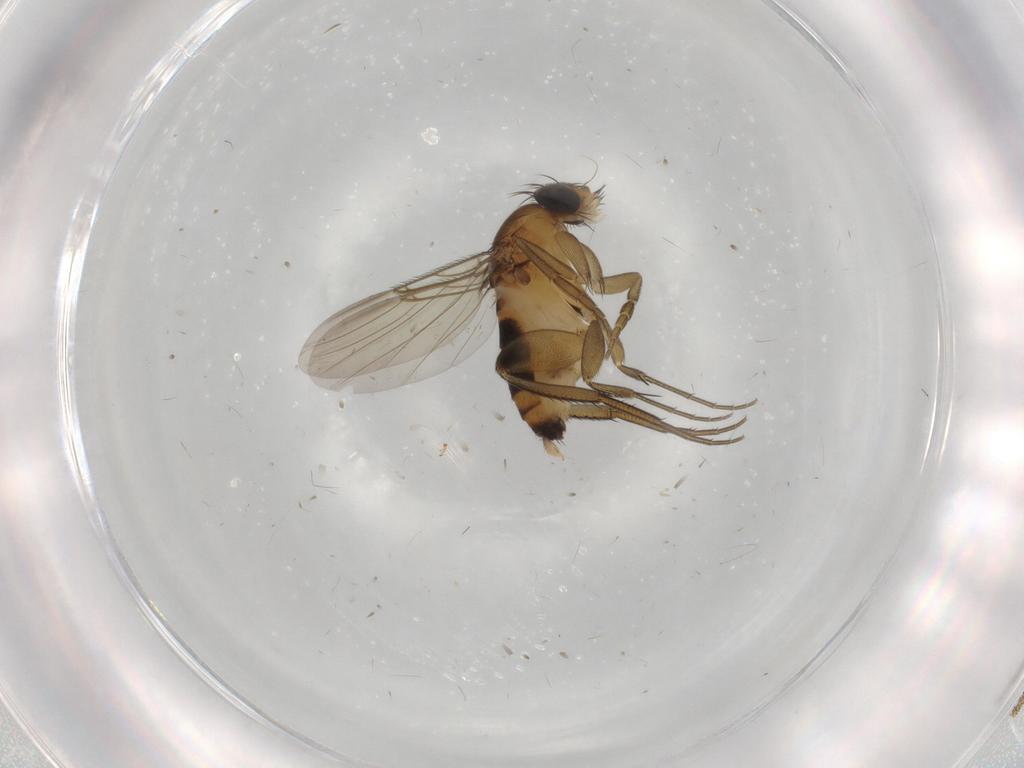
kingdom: Animalia
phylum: Arthropoda
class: Insecta
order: Diptera
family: Phoridae
